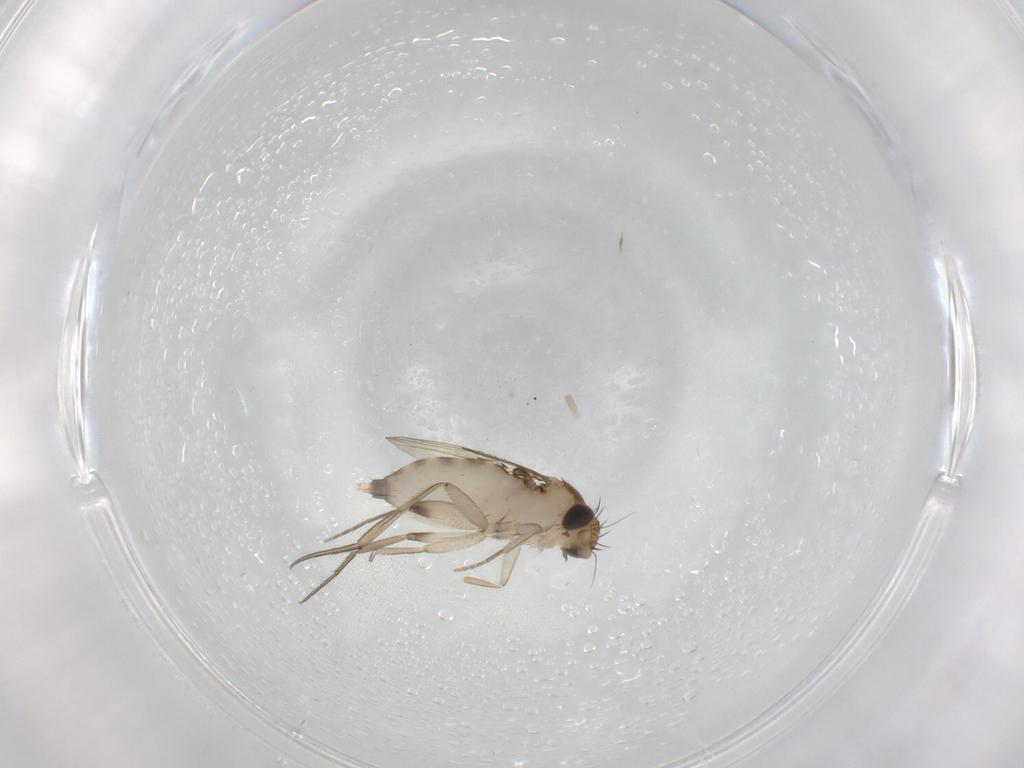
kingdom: Animalia
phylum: Arthropoda
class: Insecta
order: Diptera
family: Phoridae
